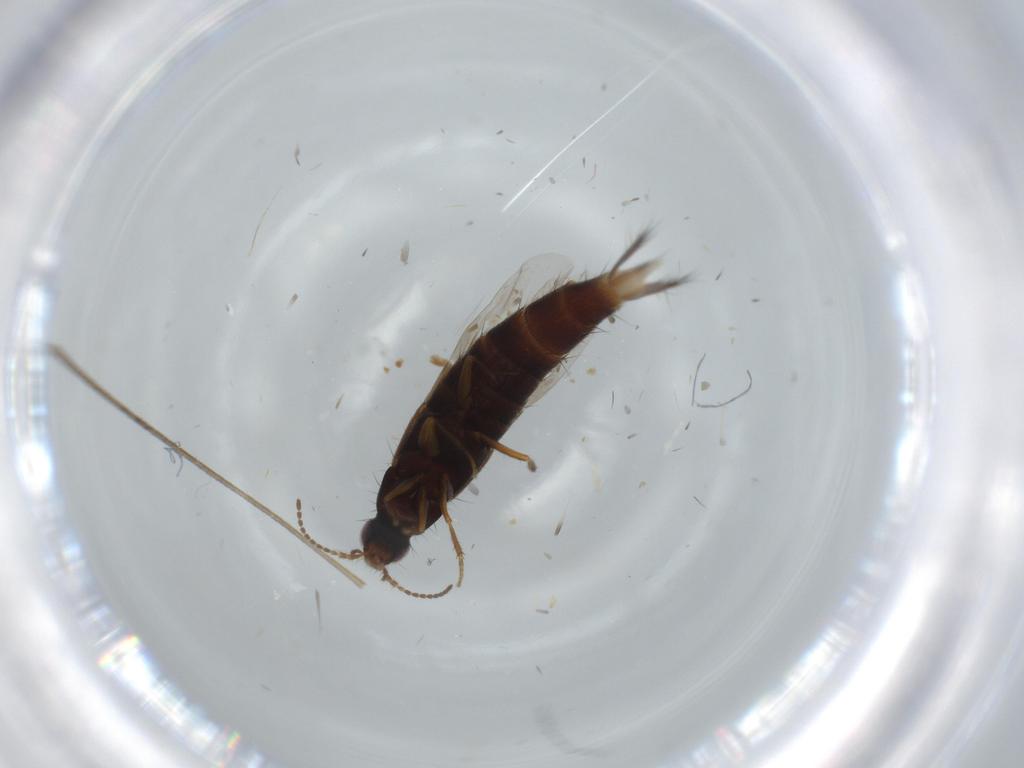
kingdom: Animalia
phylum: Arthropoda
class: Insecta
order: Coleoptera
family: Staphylinidae
